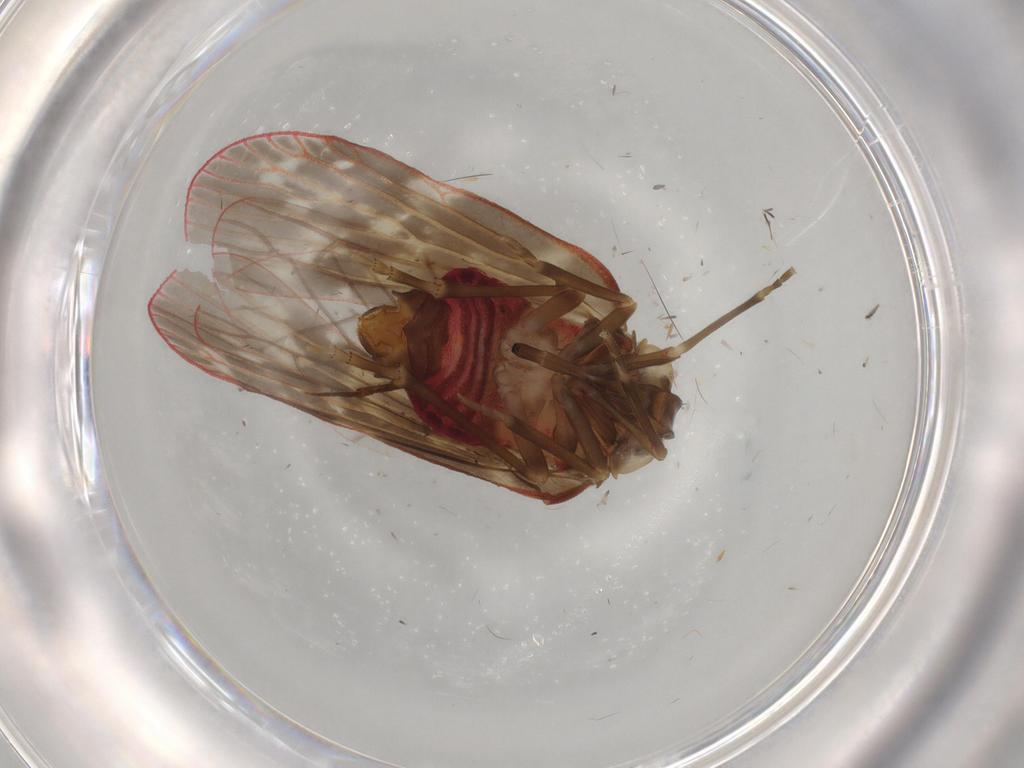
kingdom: Animalia
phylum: Arthropoda
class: Insecta
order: Hemiptera
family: Achilidae
